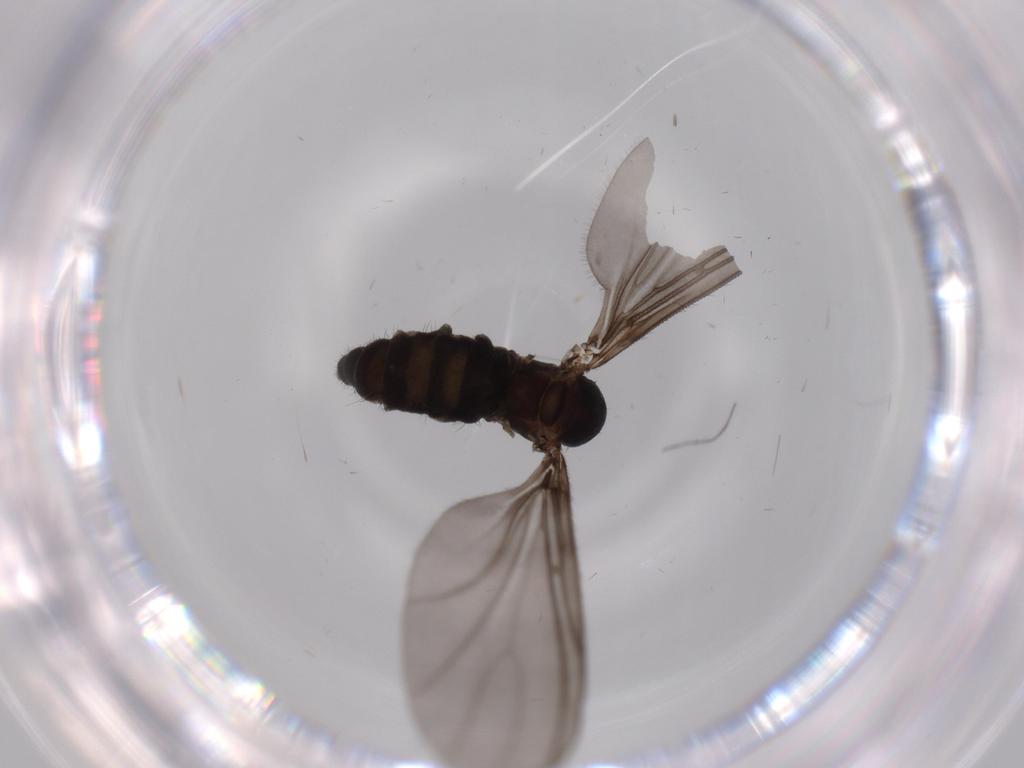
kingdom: Animalia
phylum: Arthropoda
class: Insecta
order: Diptera
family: Sciaridae
